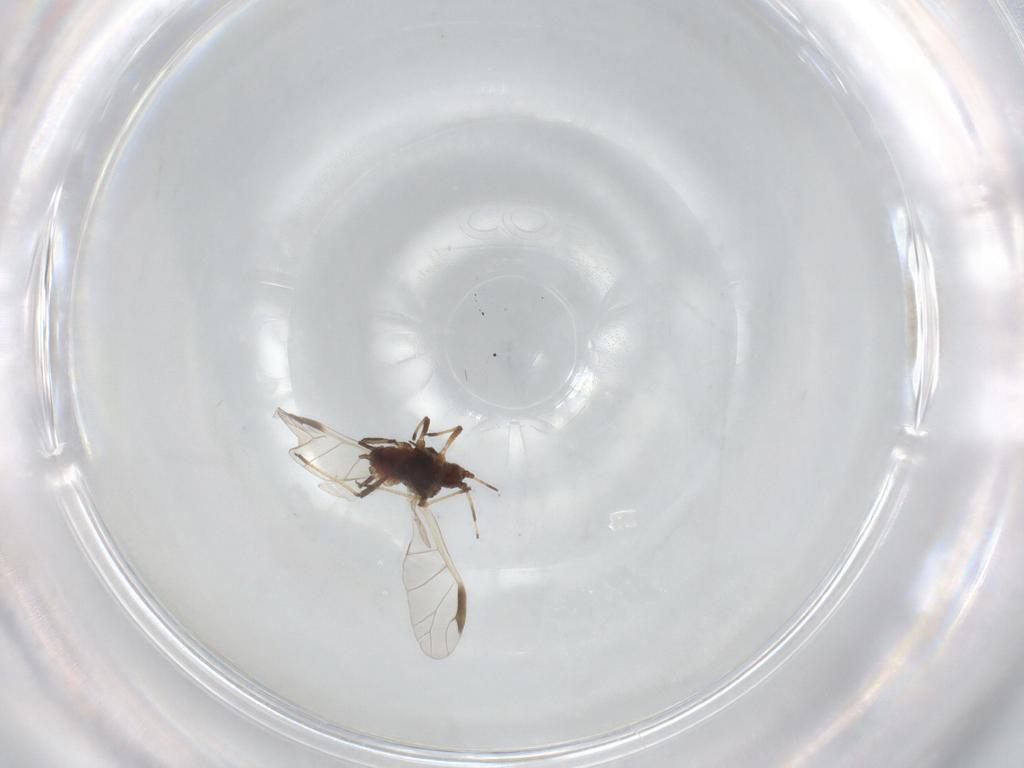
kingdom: Animalia
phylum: Arthropoda
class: Insecta
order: Hemiptera
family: Aphididae
